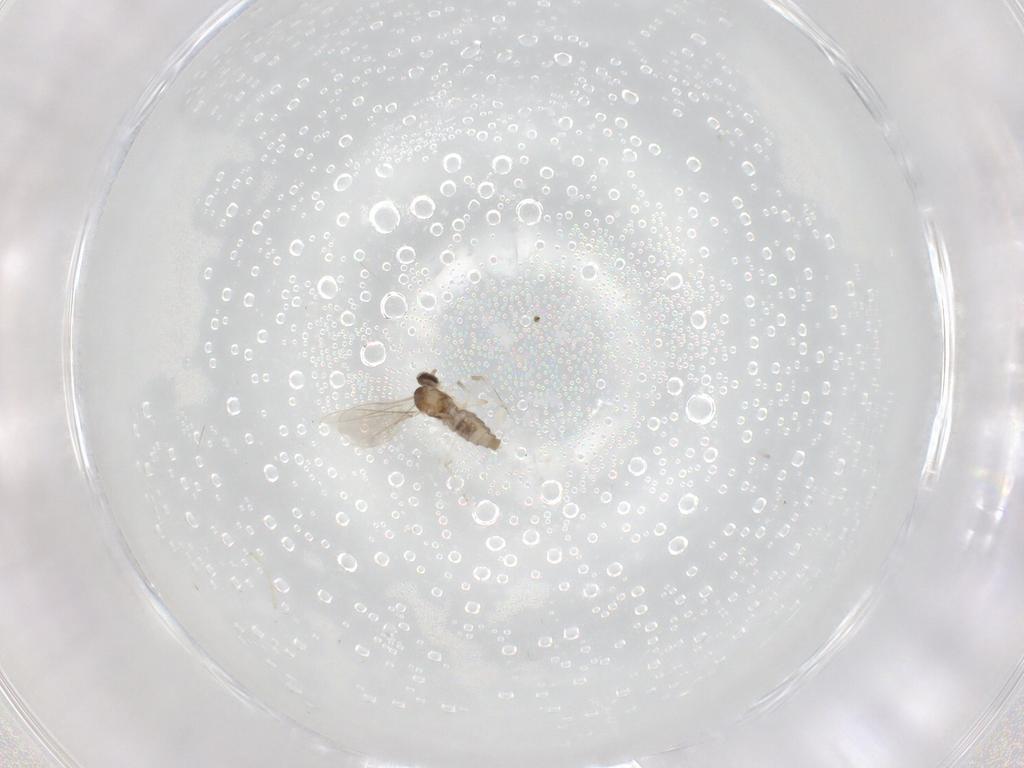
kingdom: Animalia
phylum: Arthropoda
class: Insecta
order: Diptera
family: Cecidomyiidae
